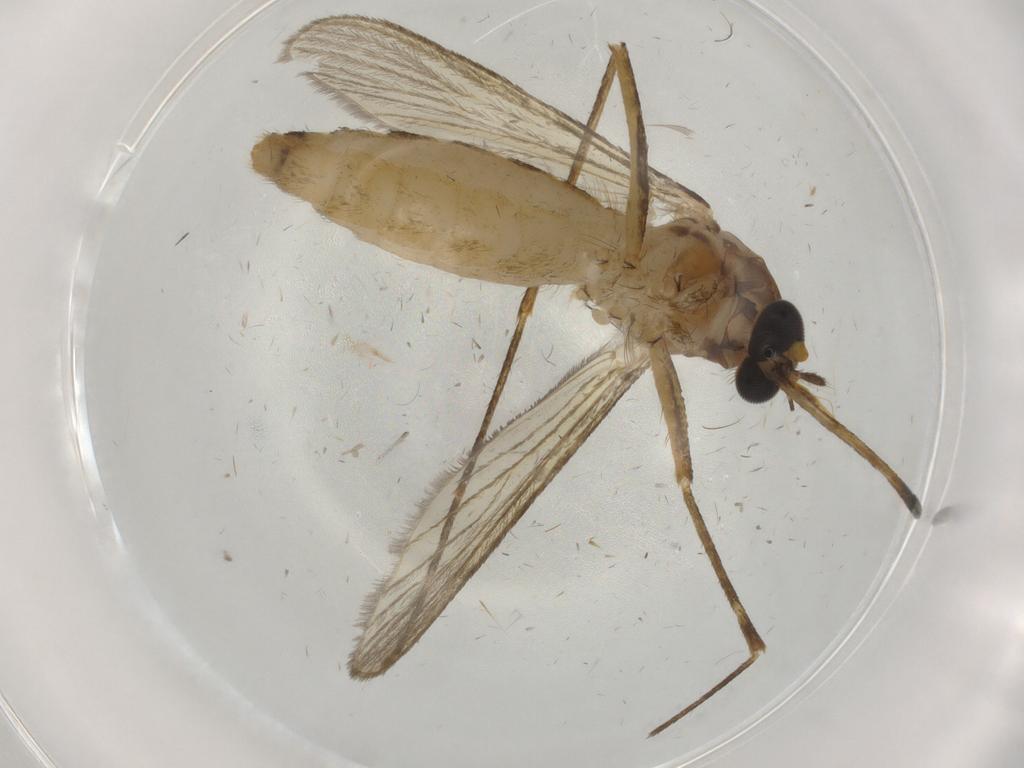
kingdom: Animalia
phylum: Arthropoda
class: Insecta
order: Diptera
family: Culicidae
